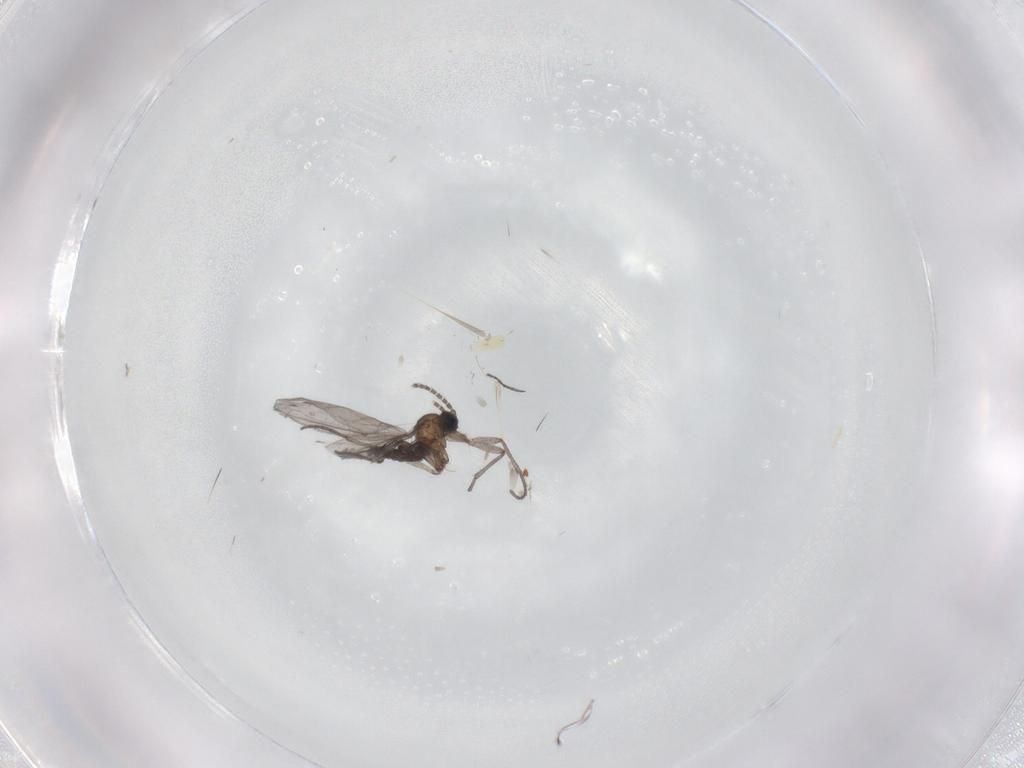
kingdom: Animalia
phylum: Arthropoda
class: Insecta
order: Diptera
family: Sciaridae
